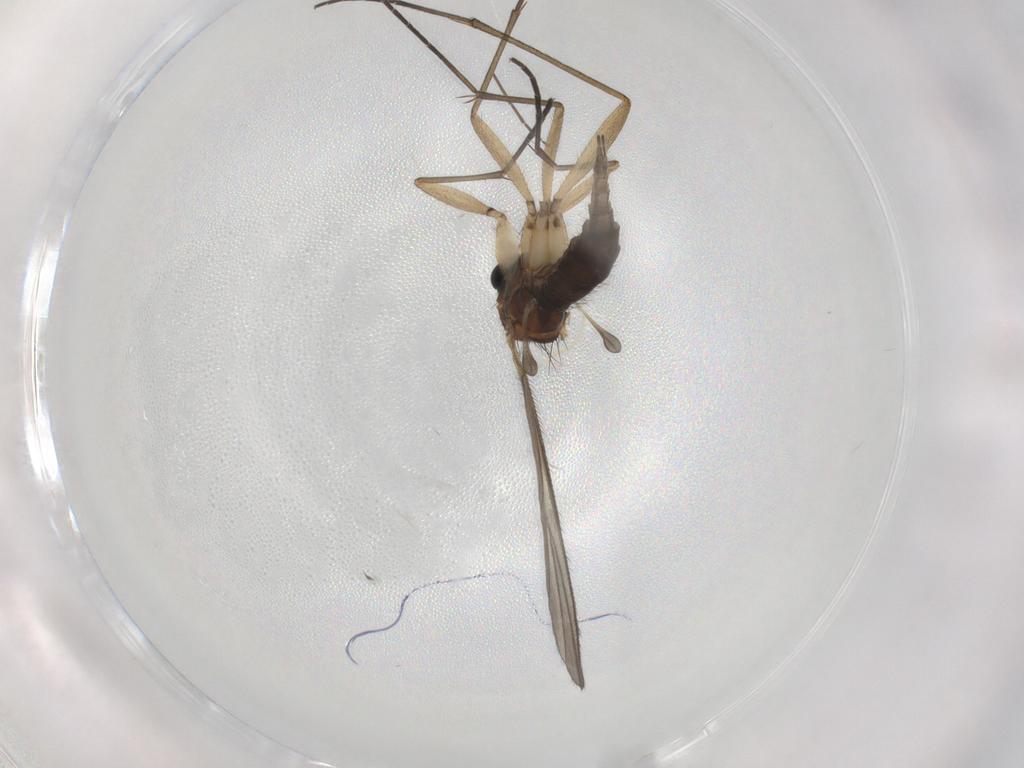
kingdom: Animalia
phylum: Arthropoda
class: Insecta
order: Diptera
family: Sciaridae
